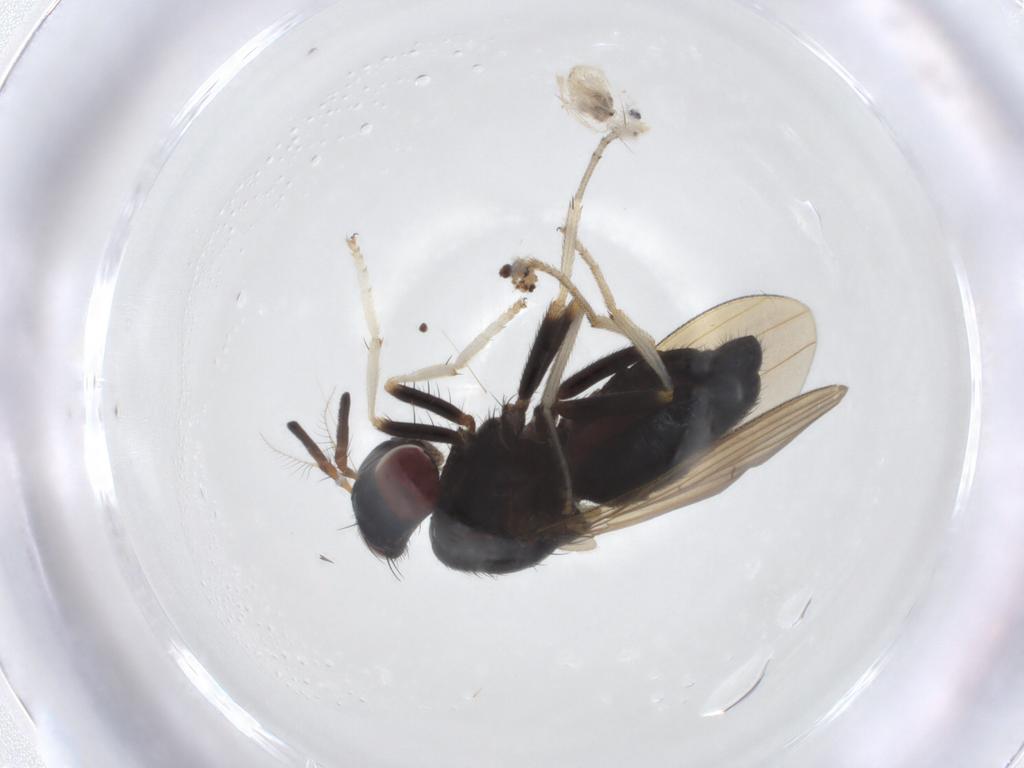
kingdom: Animalia
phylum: Arthropoda
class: Insecta
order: Diptera
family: Lauxaniidae
